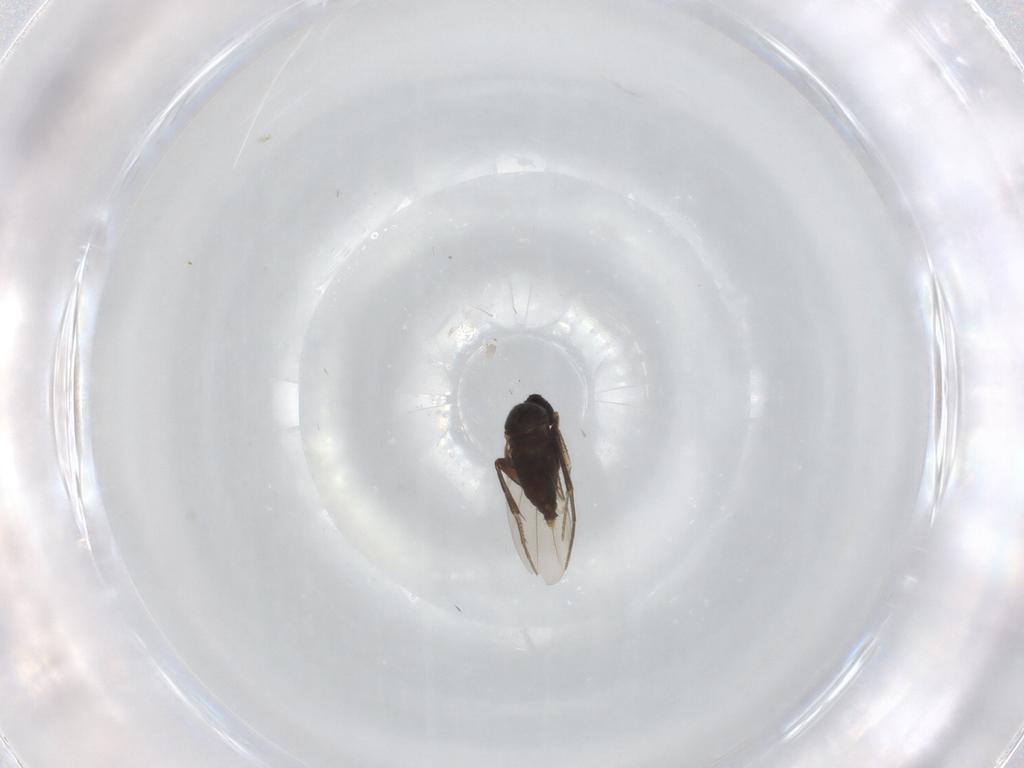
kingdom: Animalia
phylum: Arthropoda
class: Insecta
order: Diptera
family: Phoridae
